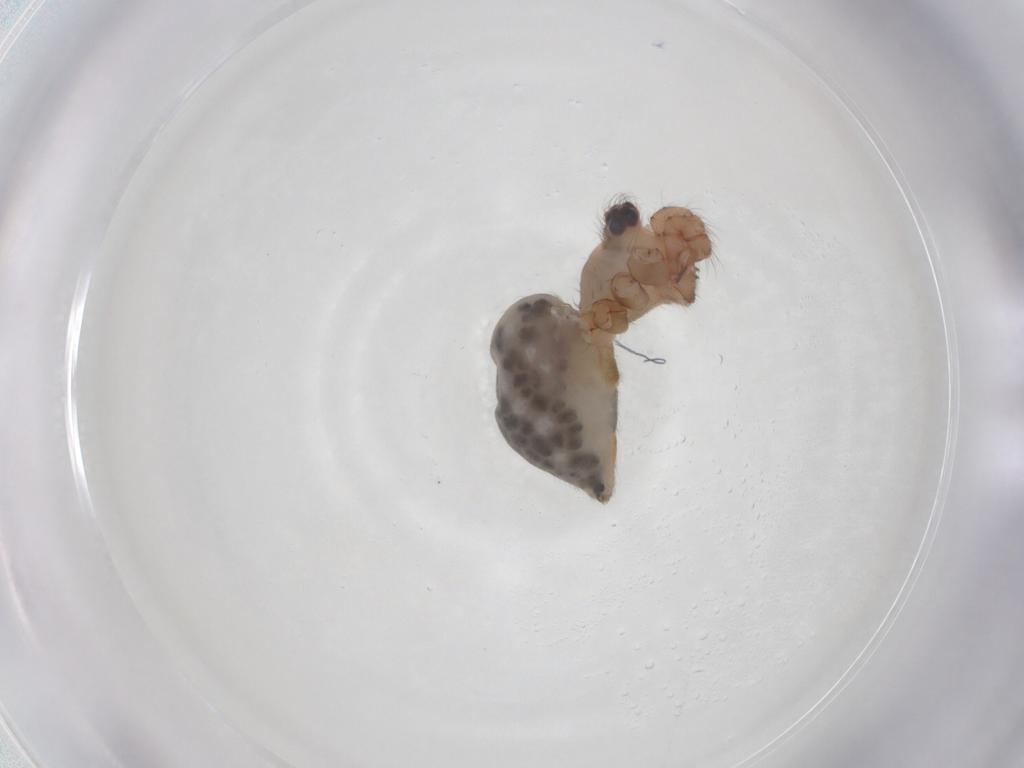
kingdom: Animalia
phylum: Arthropoda
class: Arachnida
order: Araneae
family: Pholcidae
